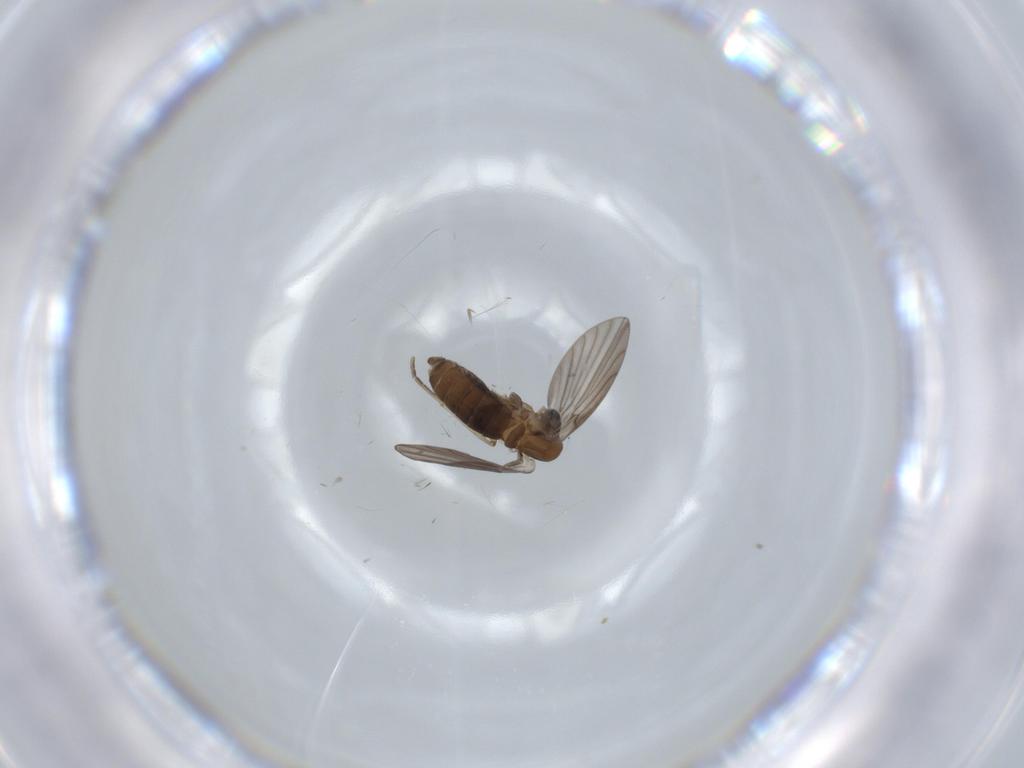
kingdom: Animalia
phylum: Arthropoda
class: Insecta
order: Diptera
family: Psychodidae
